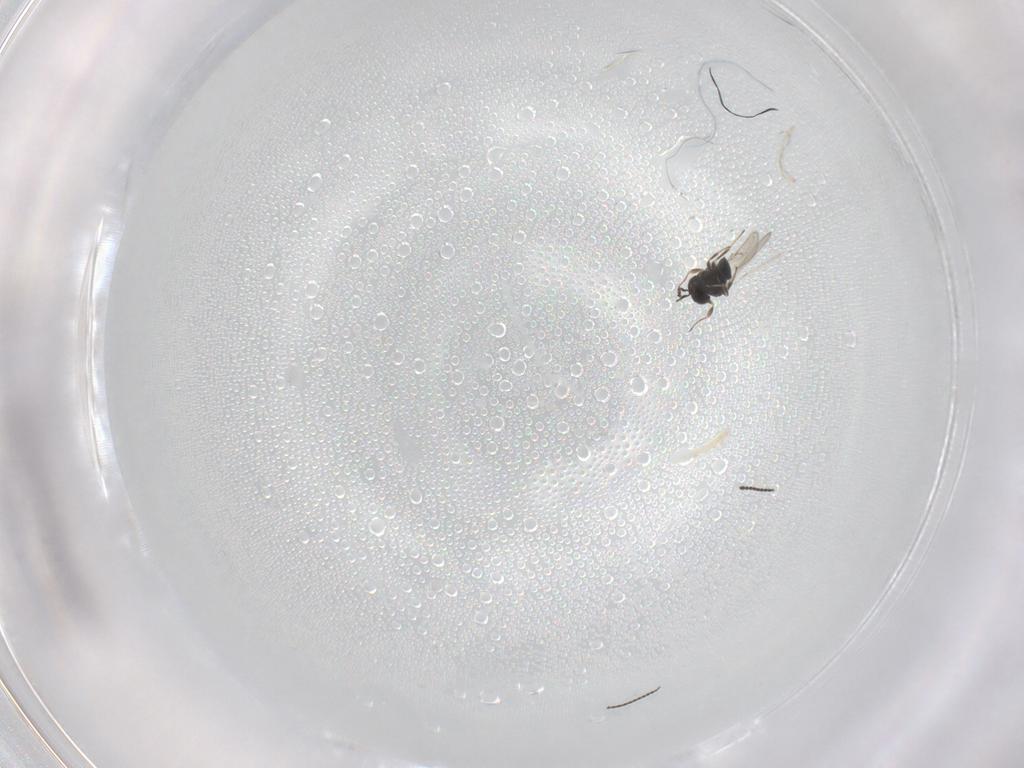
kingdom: Animalia
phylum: Arthropoda
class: Insecta
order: Hymenoptera
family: Scelionidae
